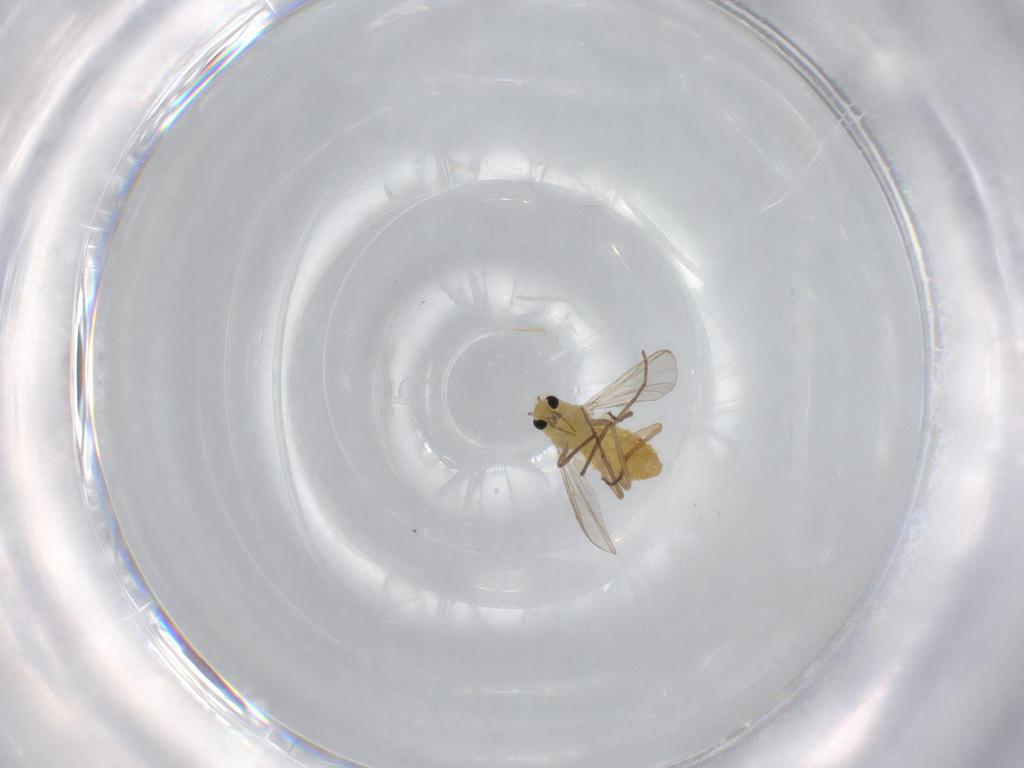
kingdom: Animalia
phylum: Arthropoda
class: Insecta
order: Diptera
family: Chironomidae
